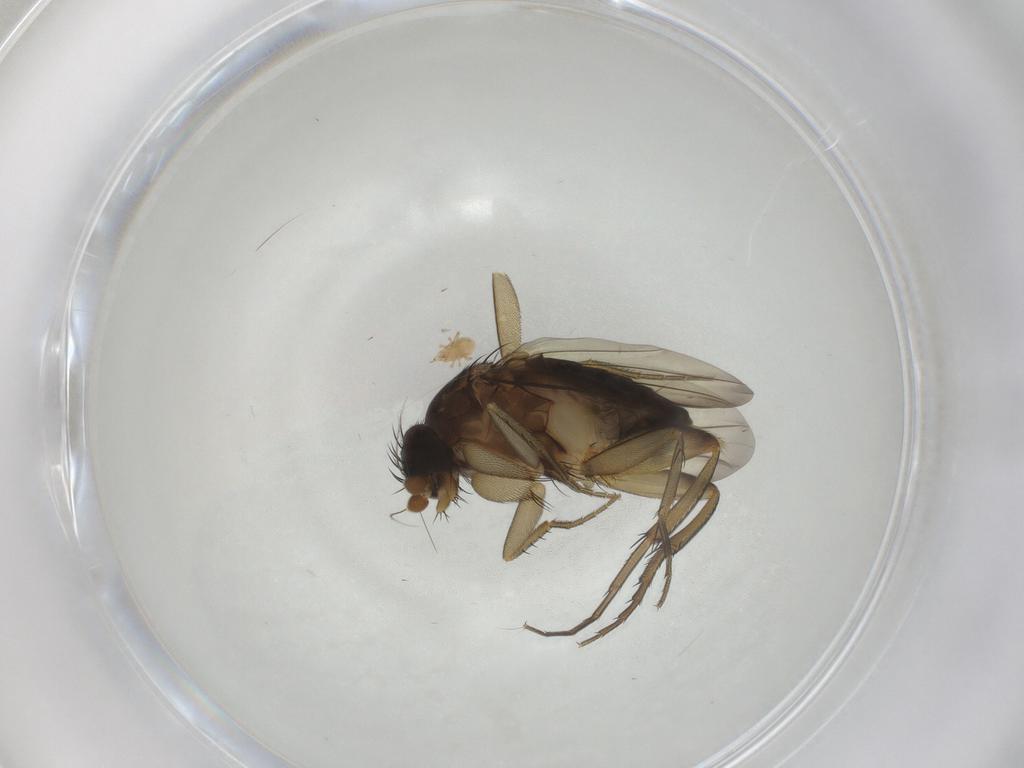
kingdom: Animalia
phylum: Arthropoda
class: Insecta
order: Diptera
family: Phoridae
